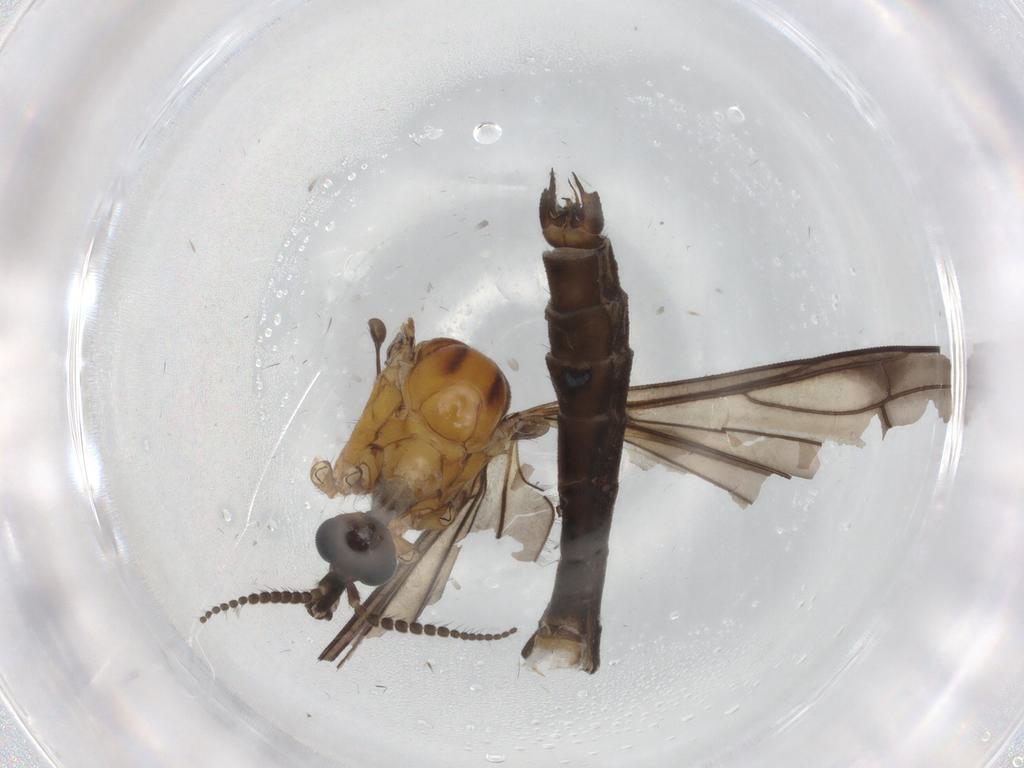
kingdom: Animalia
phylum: Arthropoda
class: Insecta
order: Diptera
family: Limoniidae
